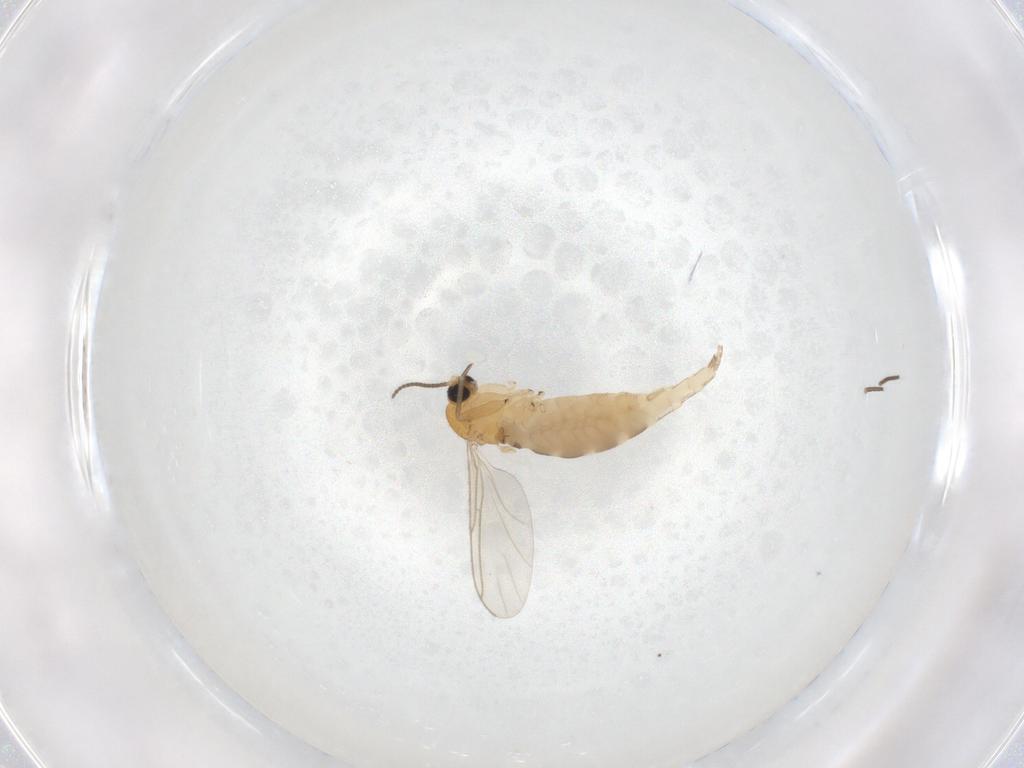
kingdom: Animalia
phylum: Arthropoda
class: Insecta
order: Diptera
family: Sciaridae
